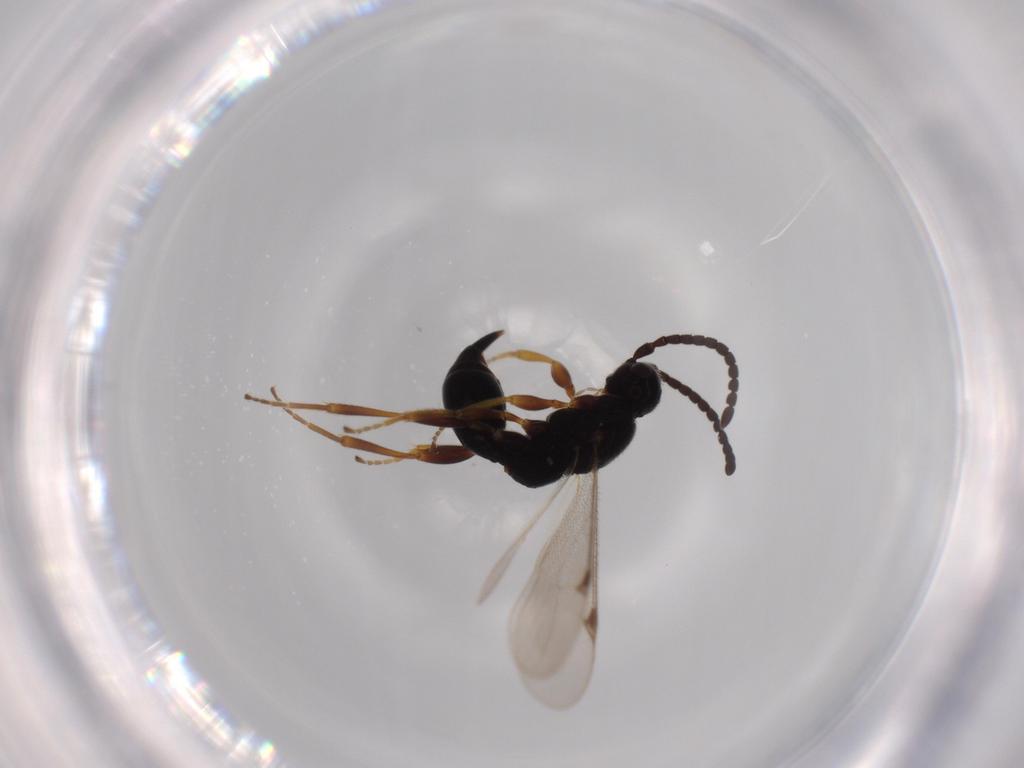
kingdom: Animalia
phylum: Arthropoda
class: Insecta
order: Hymenoptera
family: Proctotrupidae
